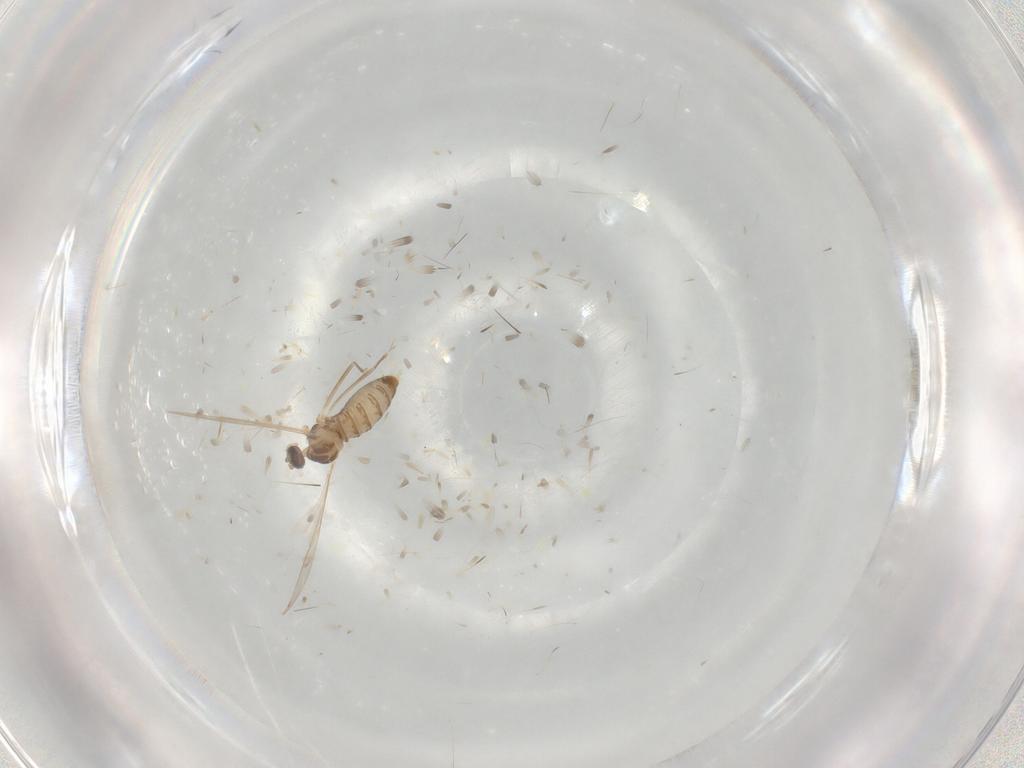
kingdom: Animalia
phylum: Arthropoda
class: Insecta
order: Diptera
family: Cecidomyiidae
